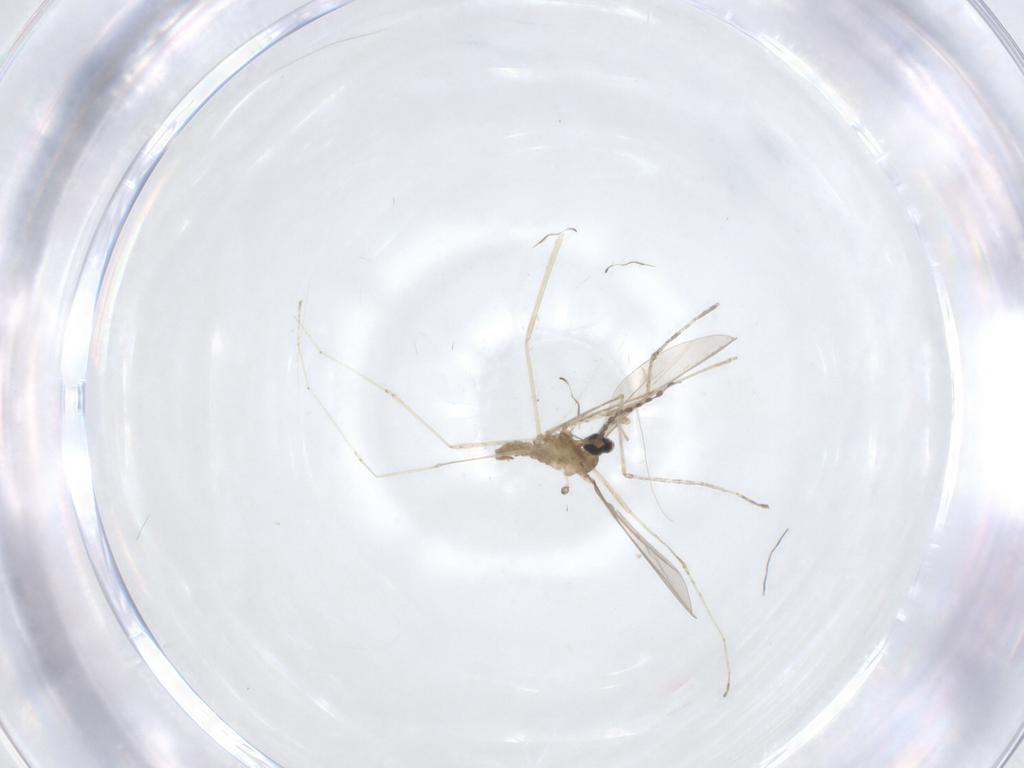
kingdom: Animalia
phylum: Arthropoda
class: Insecta
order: Diptera
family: Cecidomyiidae
